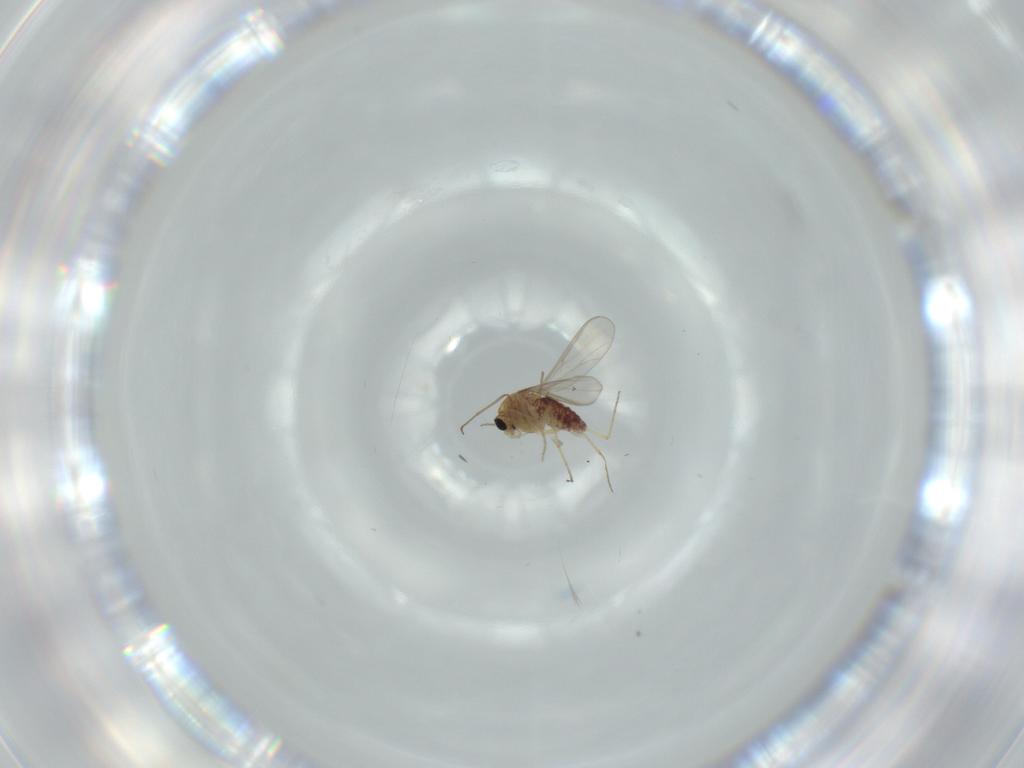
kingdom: Animalia
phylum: Arthropoda
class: Insecta
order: Diptera
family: Chironomidae
